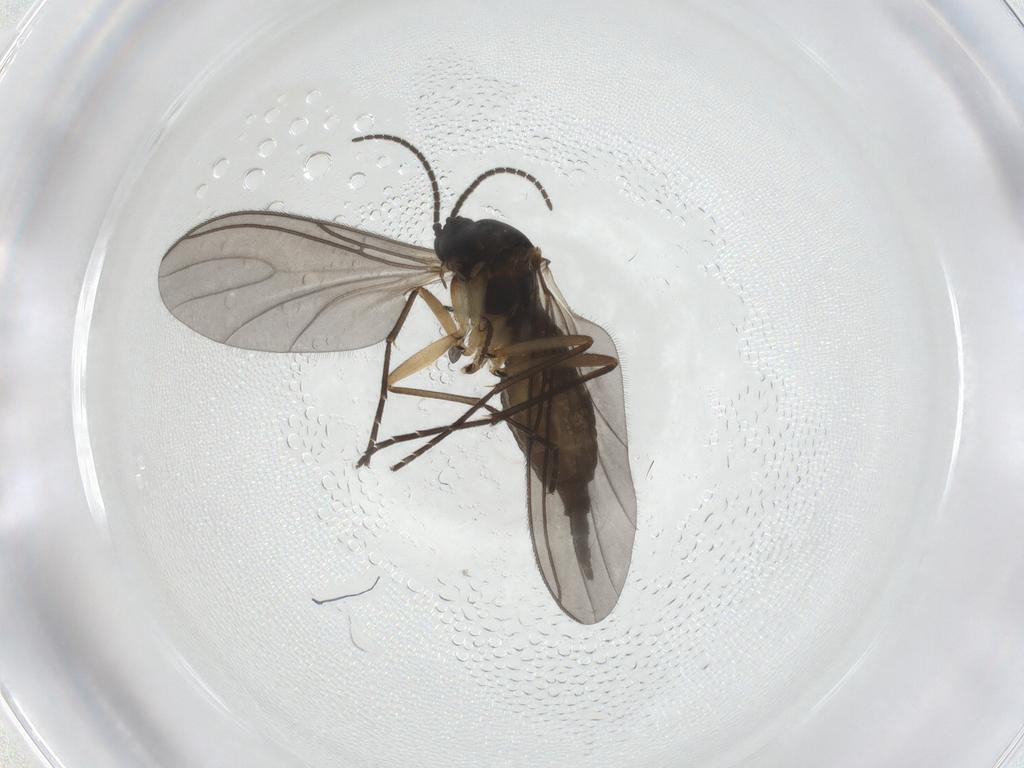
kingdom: Animalia
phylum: Arthropoda
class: Insecta
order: Diptera
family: Sciaridae
